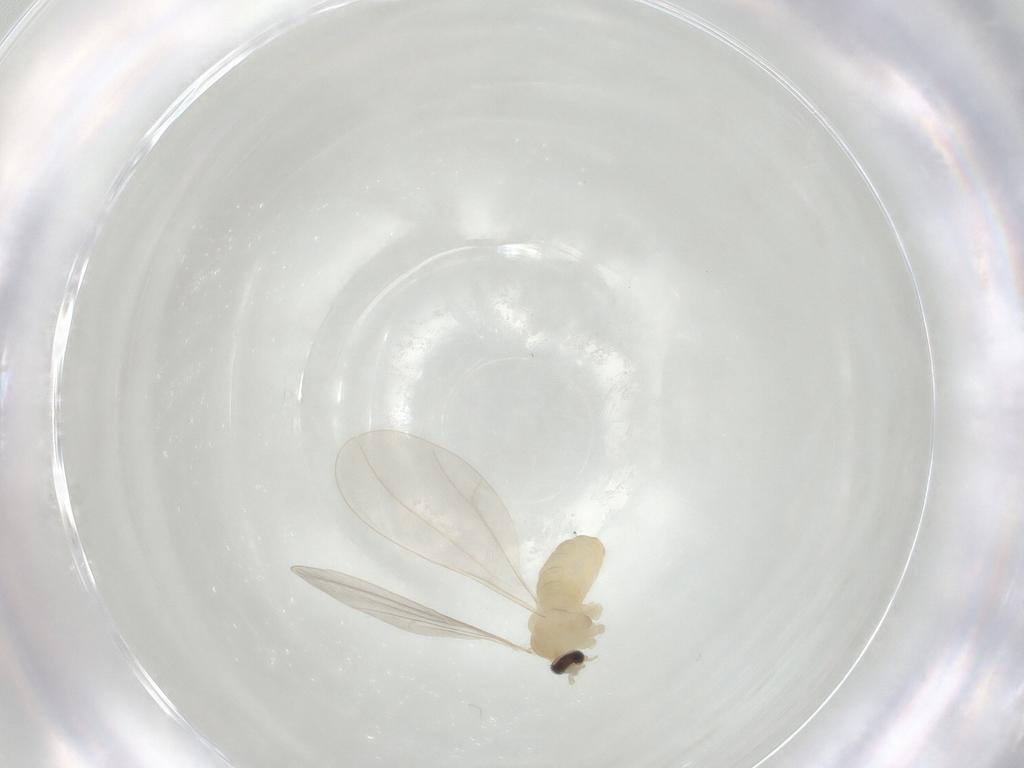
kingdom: Animalia
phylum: Arthropoda
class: Insecta
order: Diptera
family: Cecidomyiidae
